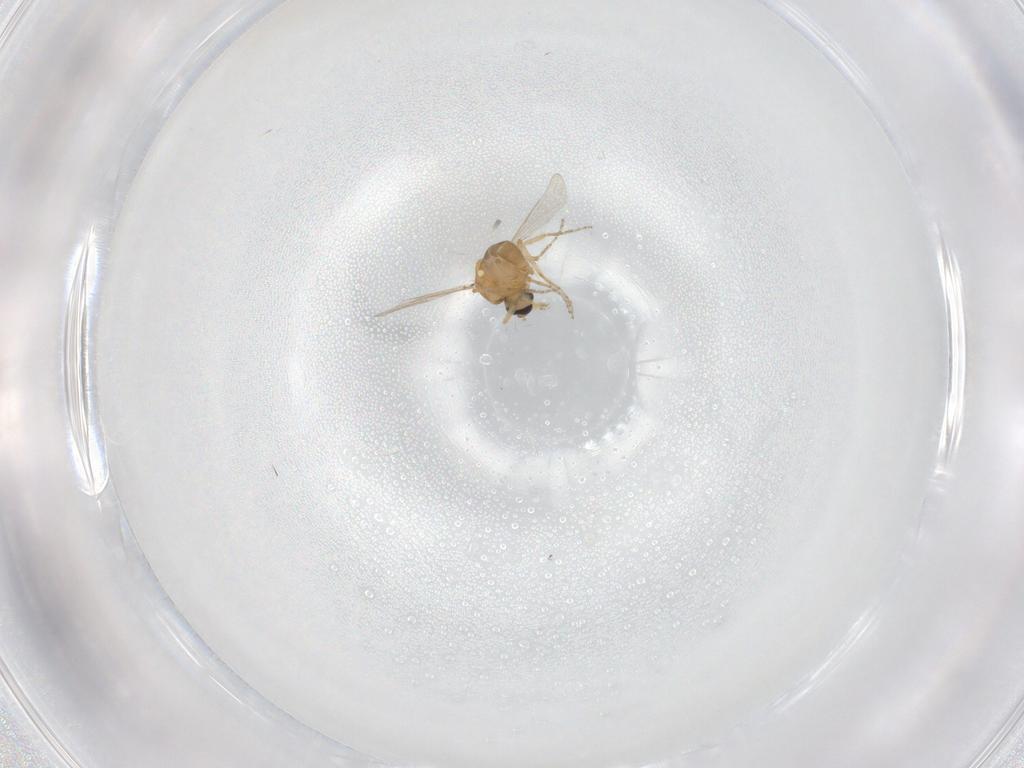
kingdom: Animalia
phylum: Arthropoda
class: Insecta
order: Diptera
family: Ceratopogonidae
